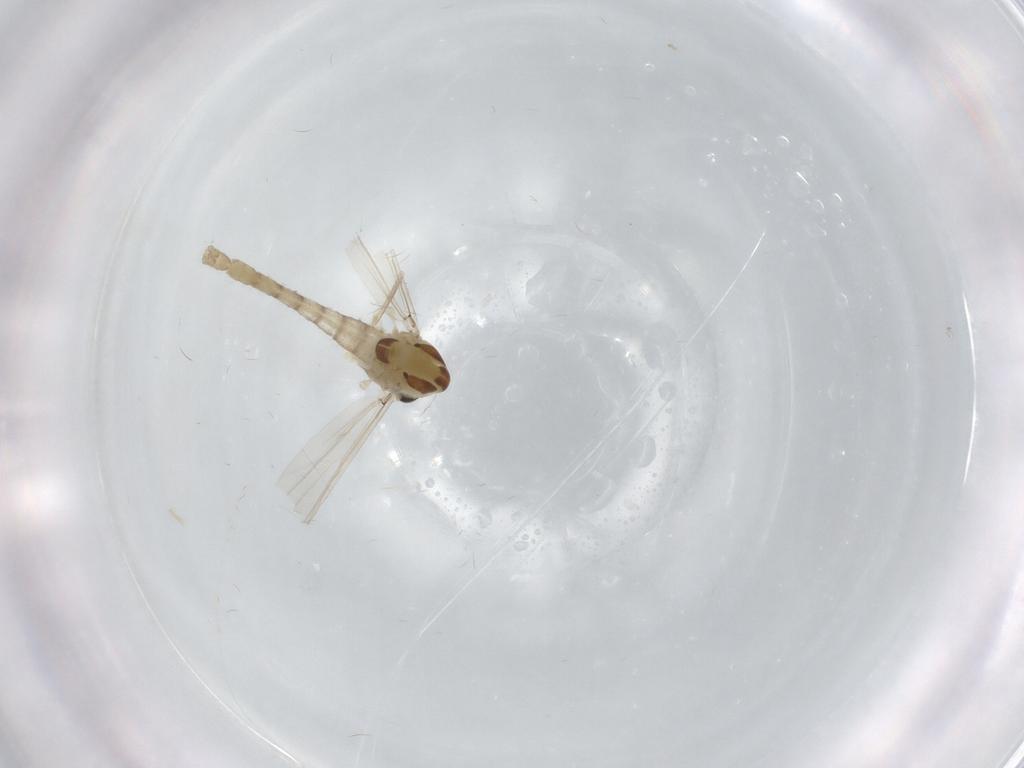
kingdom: Animalia
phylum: Arthropoda
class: Insecta
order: Diptera
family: Chironomidae
